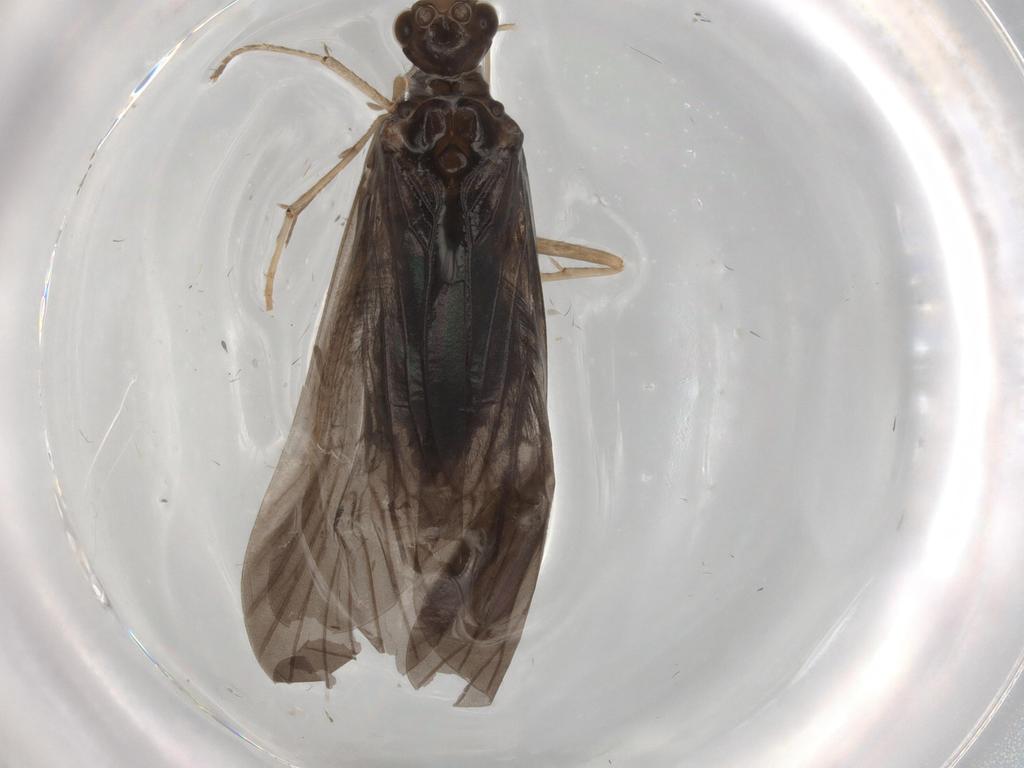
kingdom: Animalia
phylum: Arthropoda
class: Insecta
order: Trichoptera
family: Hydropsychidae
